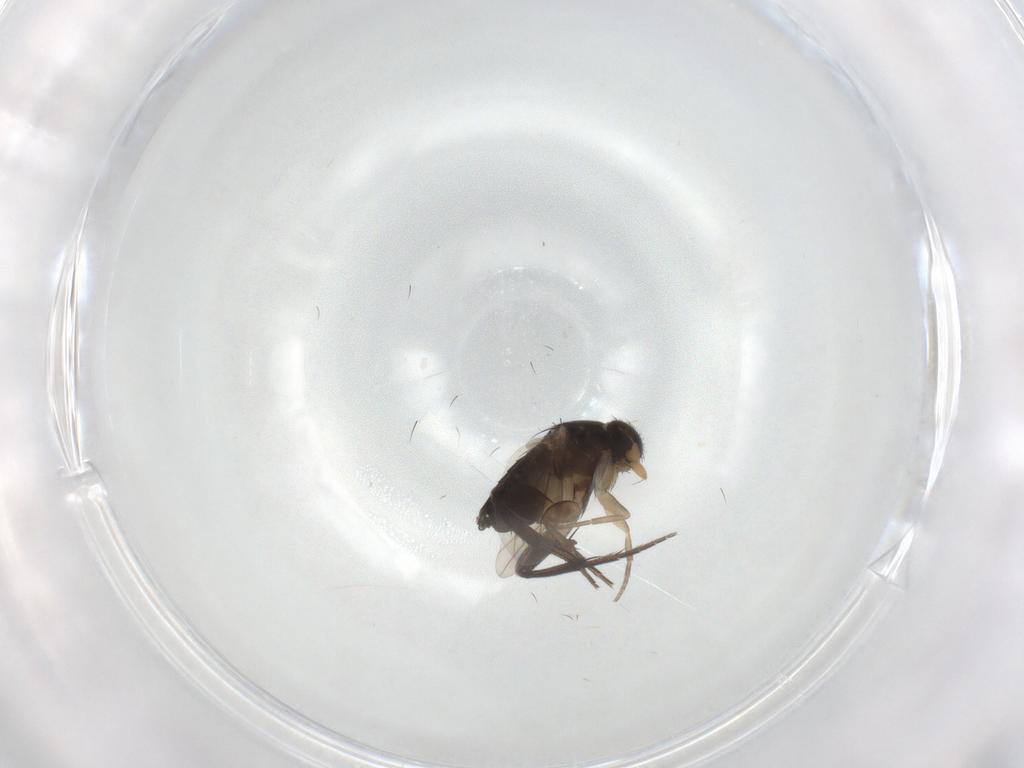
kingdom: Animalia
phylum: Arthropoda
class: Insecta
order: Diptera
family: Phoridae
